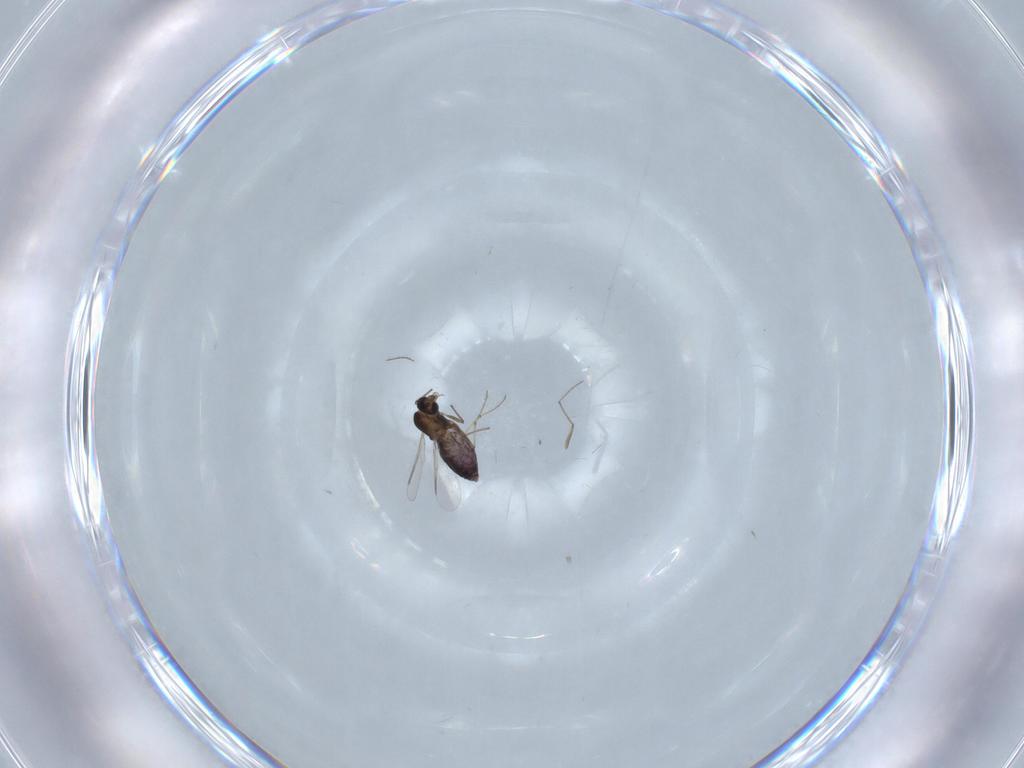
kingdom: Animalia
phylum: Arthropoda
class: Insecta
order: Diptera
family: Chironomidae
